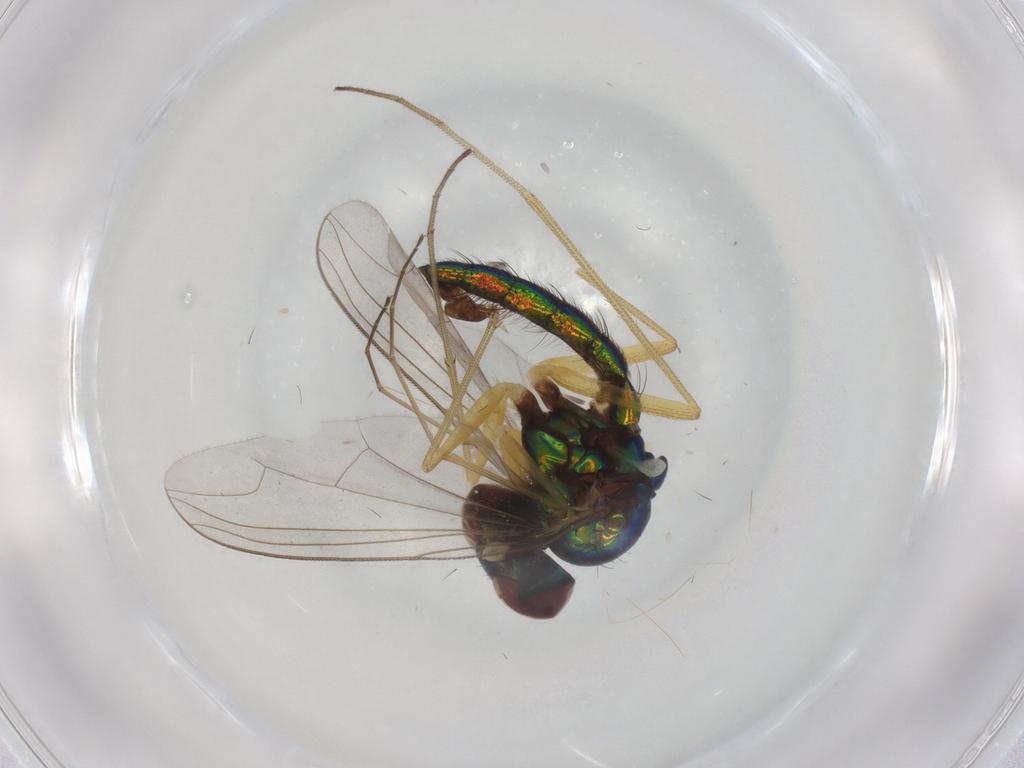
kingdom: Animalia
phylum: Arthropoda
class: Insecta
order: Diptera
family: Dolichopodidae
